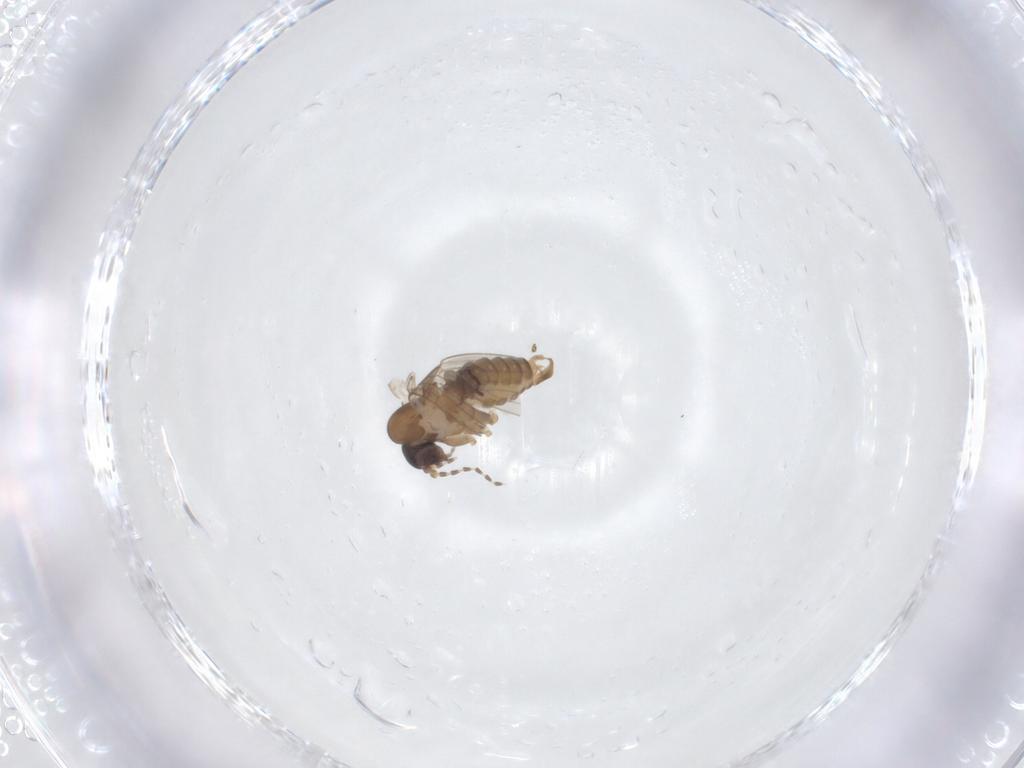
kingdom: Animalia
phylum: Arthropoda
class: Insecta
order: Diptera
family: Psychodidae
